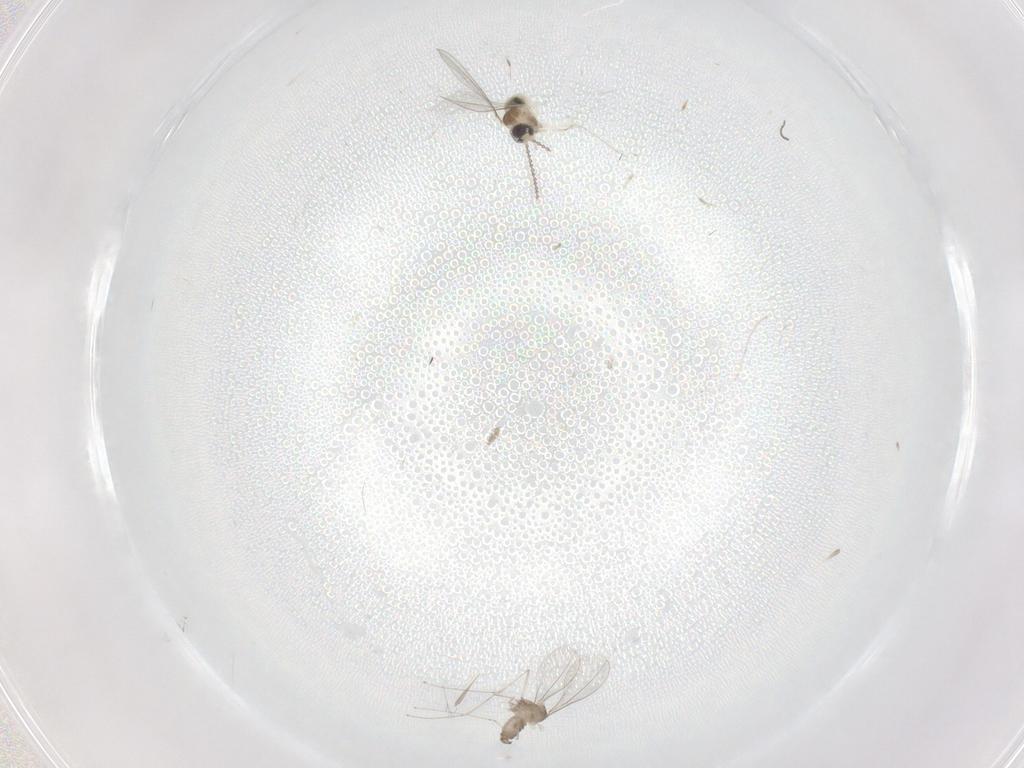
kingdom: Animalia
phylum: Arthropoda
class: Insecta
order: Diptera
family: Cecidomyiidae
